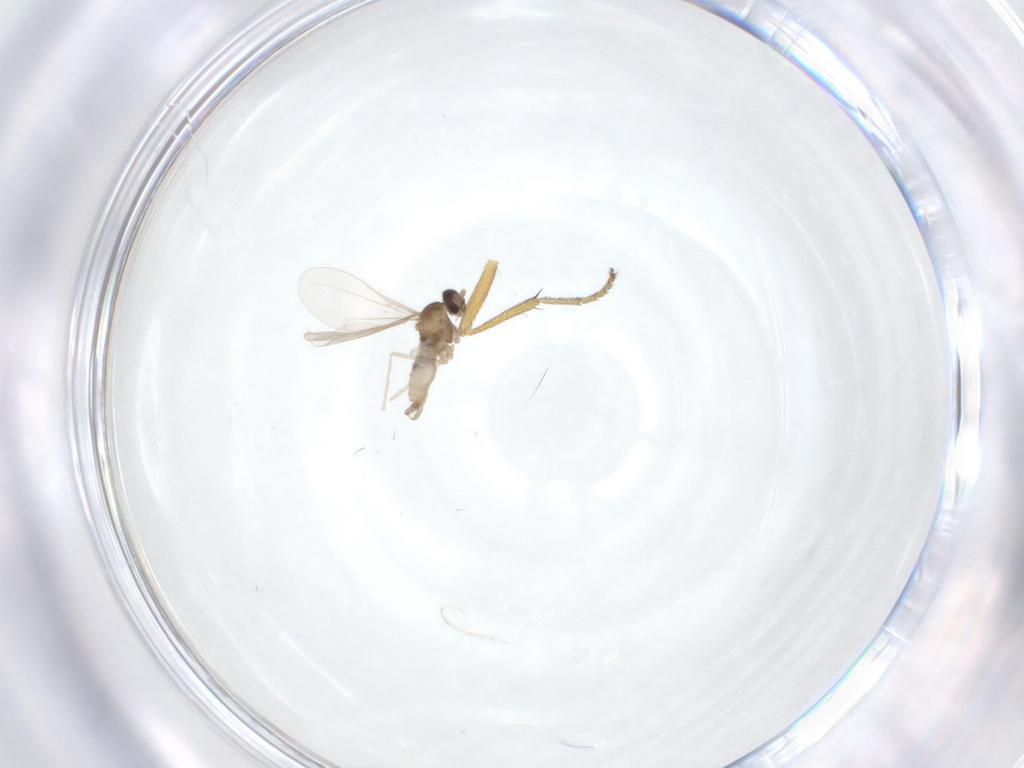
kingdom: Animalia
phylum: Arthropoda
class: Insecta
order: Diptera
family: Cecidomyiidae
